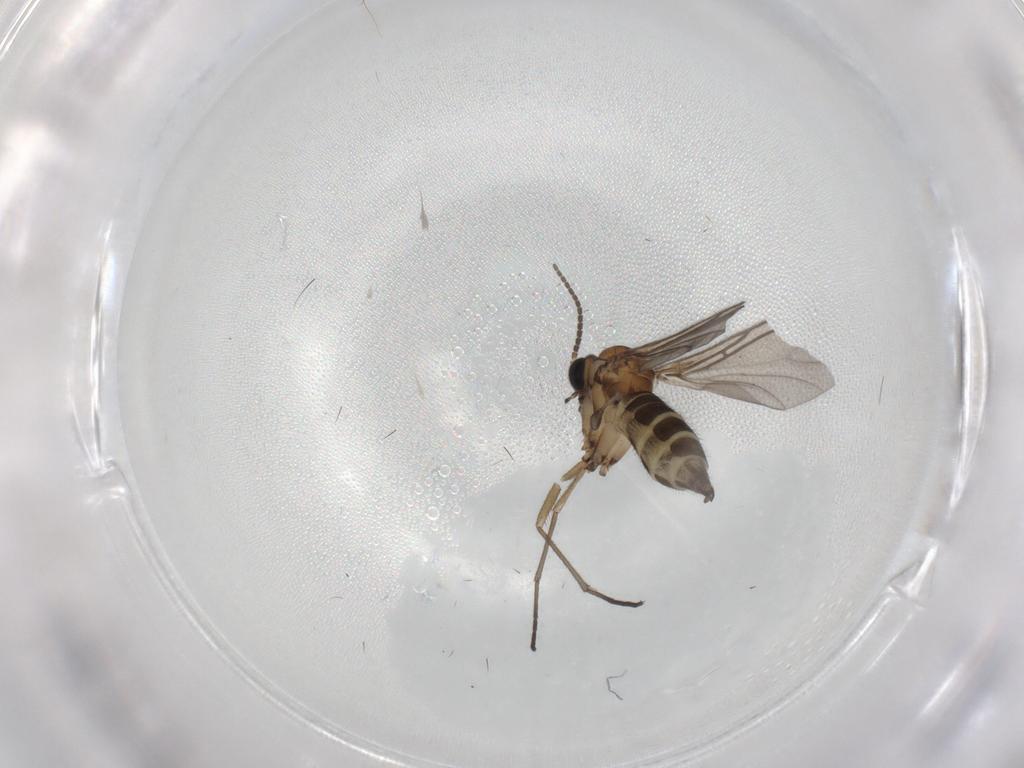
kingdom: Animalia
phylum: Arthropoda
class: Insecta
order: Diptera
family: Sciaridae
